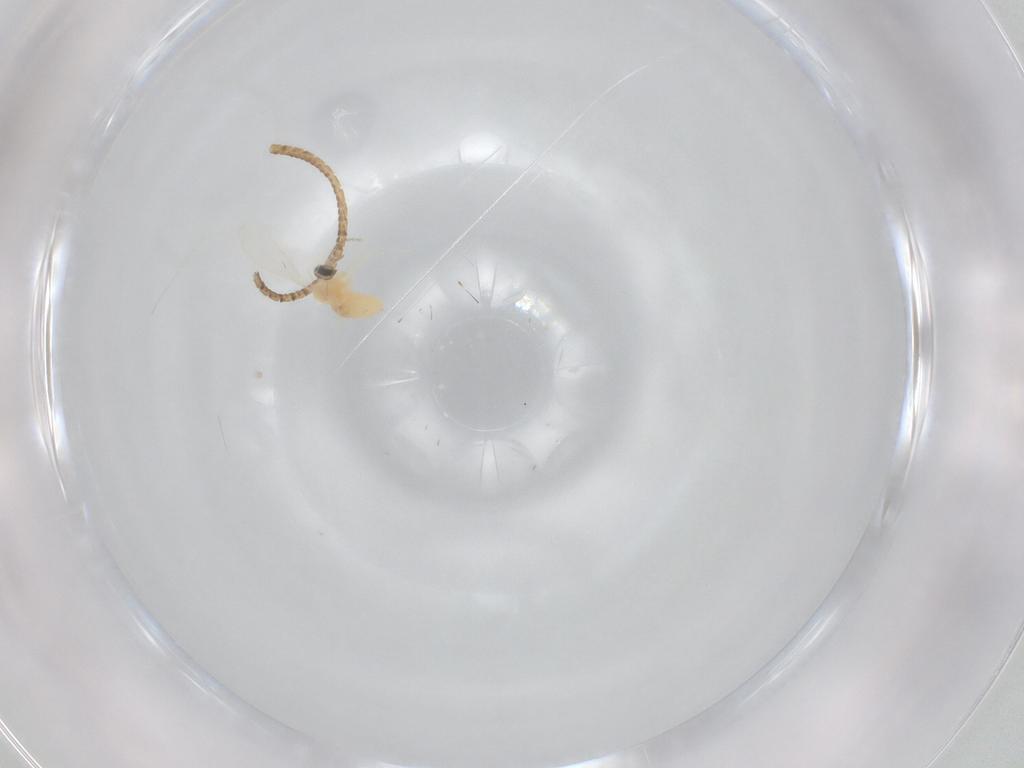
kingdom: Animalia
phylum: Arthropoda
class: Insecta
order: Diptera
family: Cecidomyiidae
